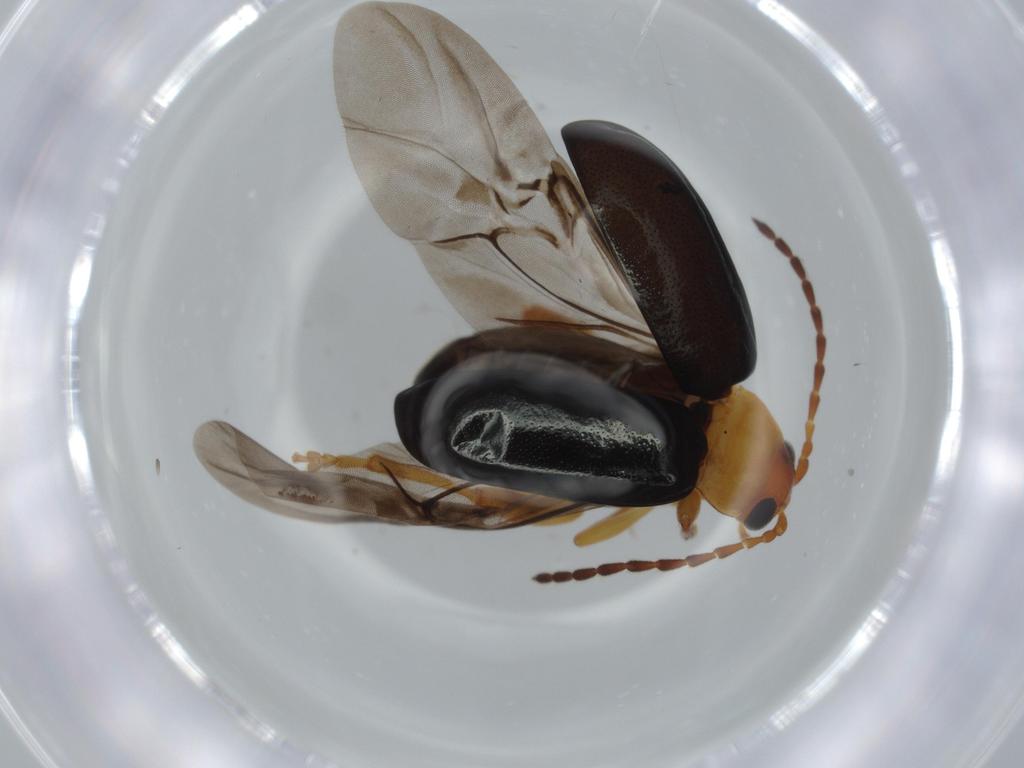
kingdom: Animalia
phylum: Arthropoda
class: Insecta
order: Coleoptera
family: Chrysomelidae
